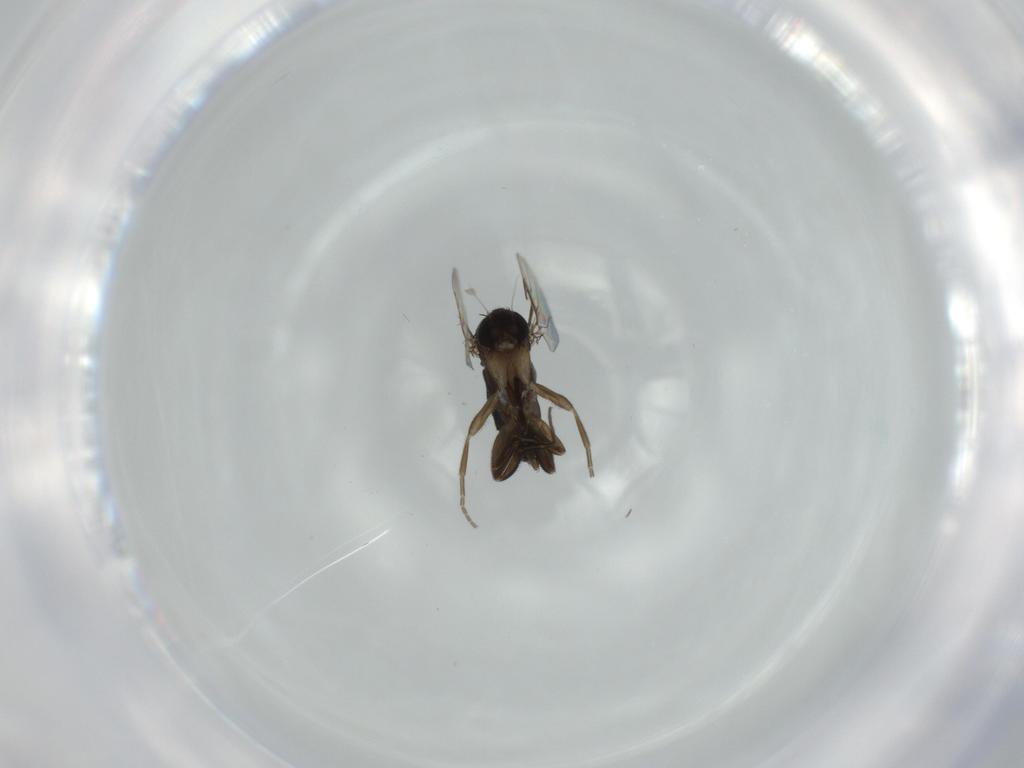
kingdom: Animalia
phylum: Arthropoda
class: Insecta
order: Diptera
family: Phoridae
